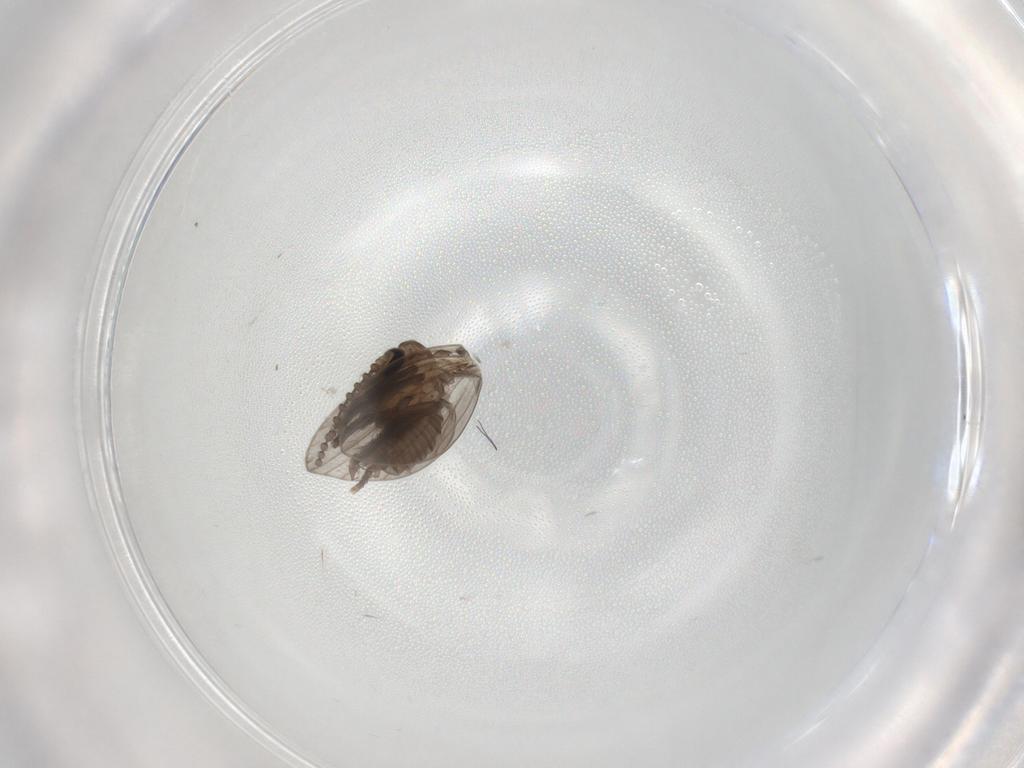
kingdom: Animalia
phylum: Arthropoda
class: Insecta
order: Diptera
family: Psychodidae
